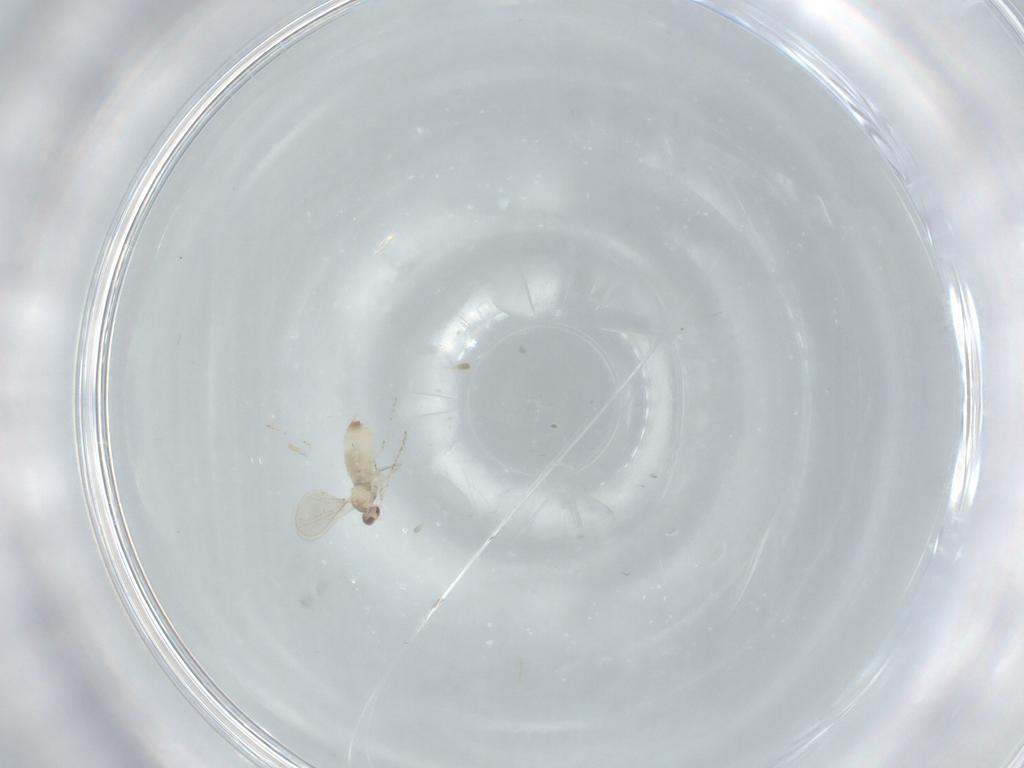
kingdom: Animalia
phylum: Arthropoda
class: Insecta
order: Diptera
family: Cecidomyiidae
